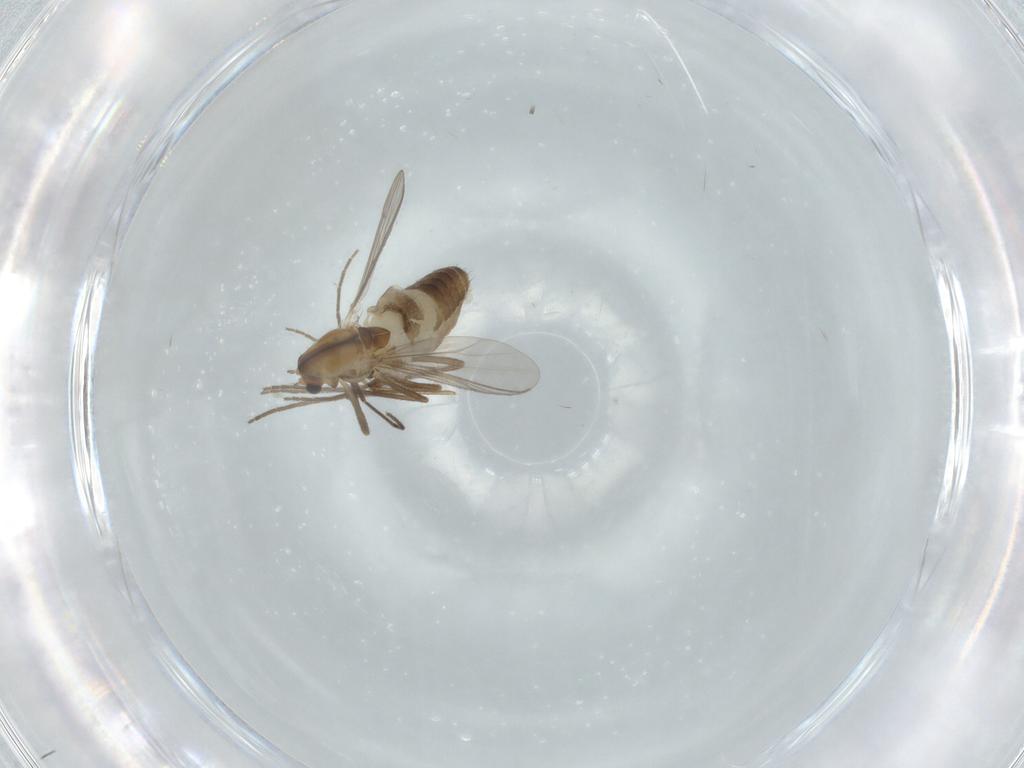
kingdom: Animalia
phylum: Arthropoda
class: Insecta
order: Diptera
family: Chironomidae
